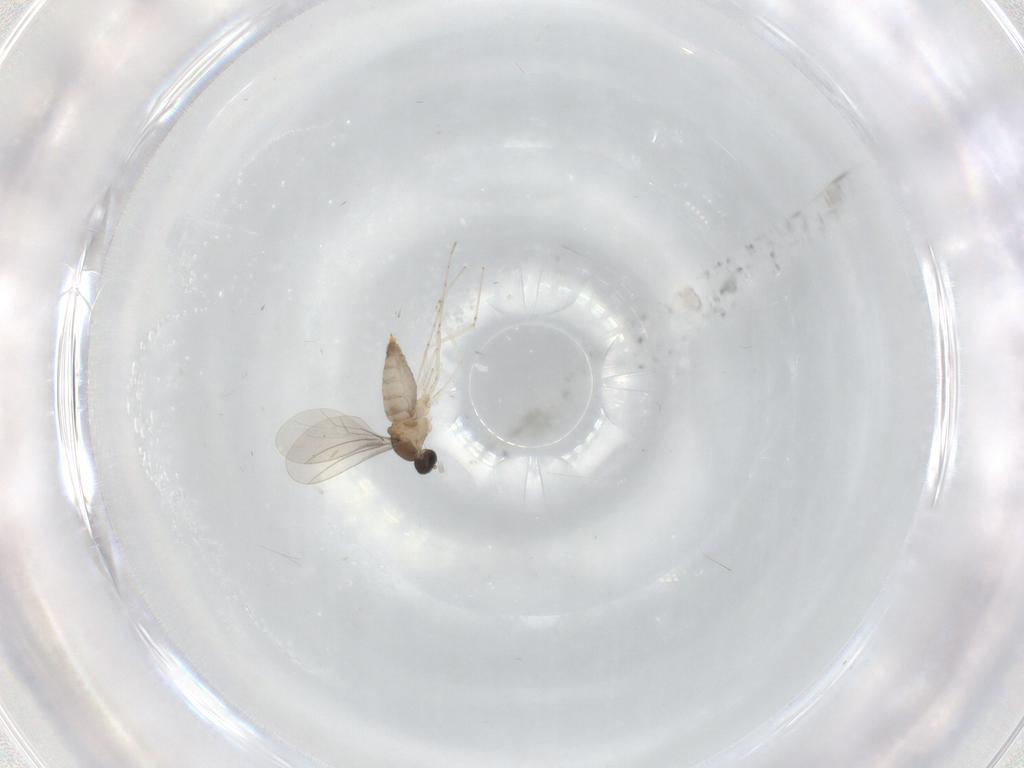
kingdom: Animalia
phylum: Arthropoda
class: Insecta
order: Diptera
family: Cecidomyiidae
